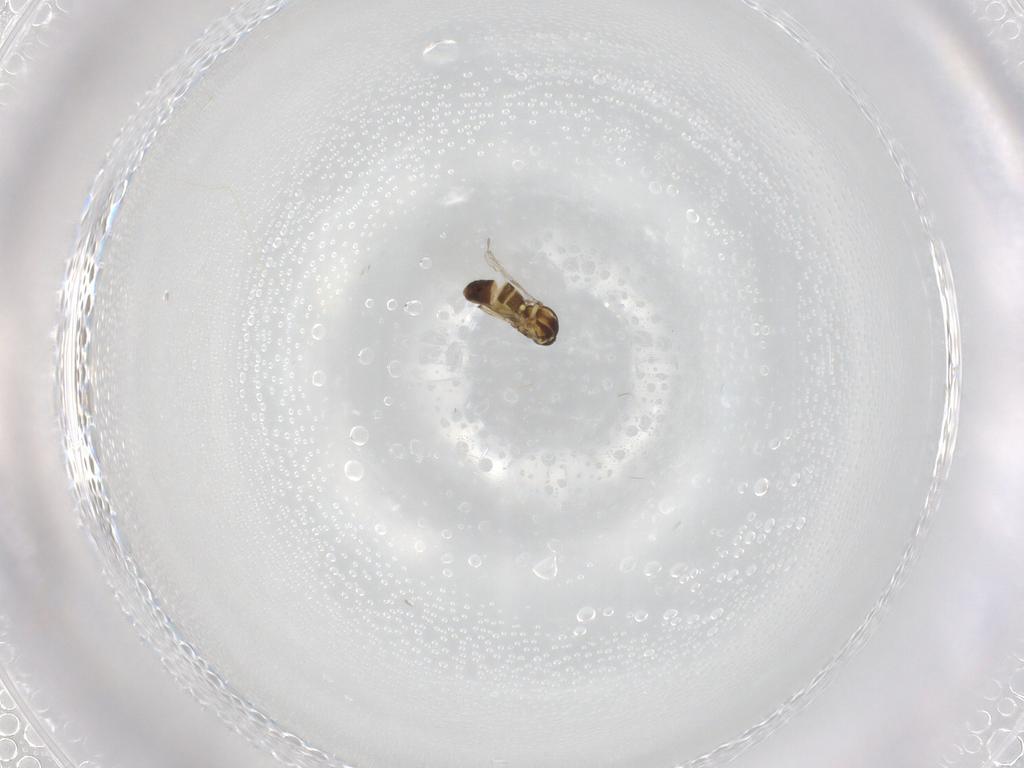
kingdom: Animalia
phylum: Arthropoda
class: Insecta
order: Diptera
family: Ceratopogonidae
